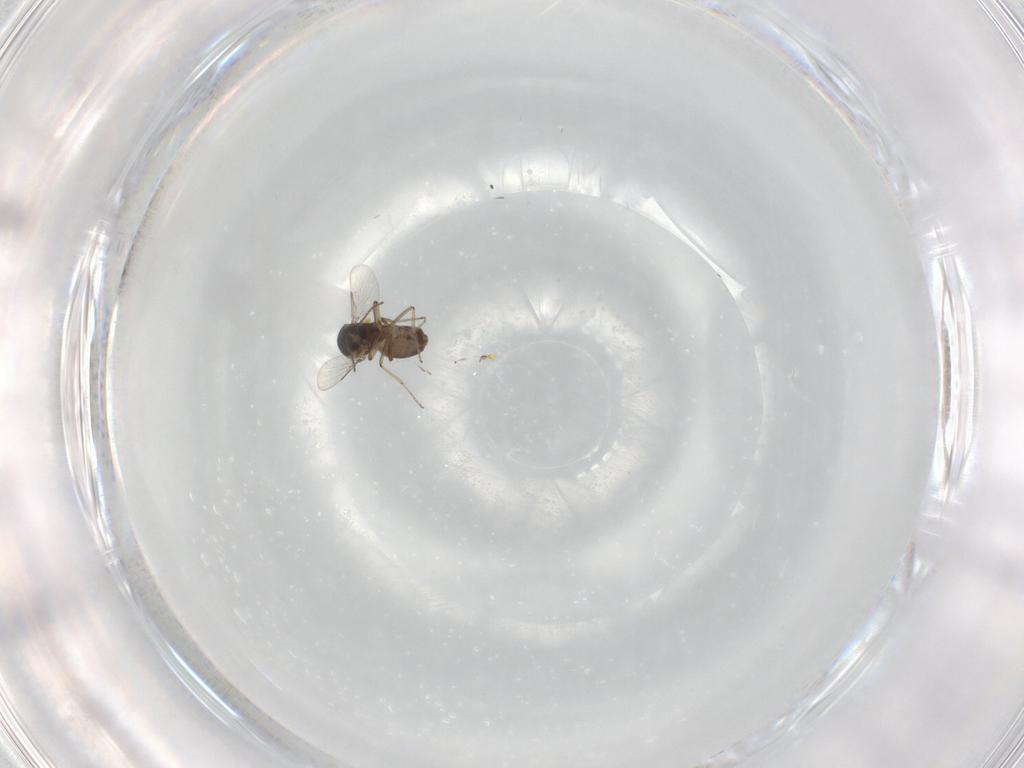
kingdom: Animalia
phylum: Arthropoda
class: Insecta
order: Diptera
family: Ceratopogonidae
